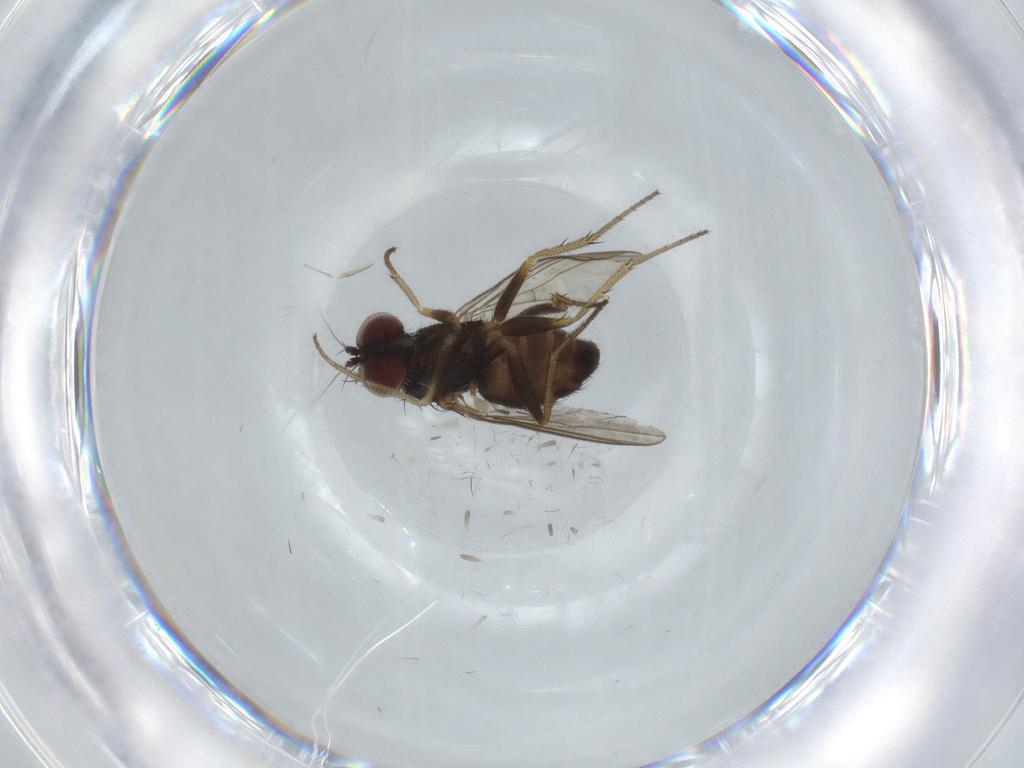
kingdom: Animalia
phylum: Arthropoda
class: Insecta
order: Diptera
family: Chironomidae
